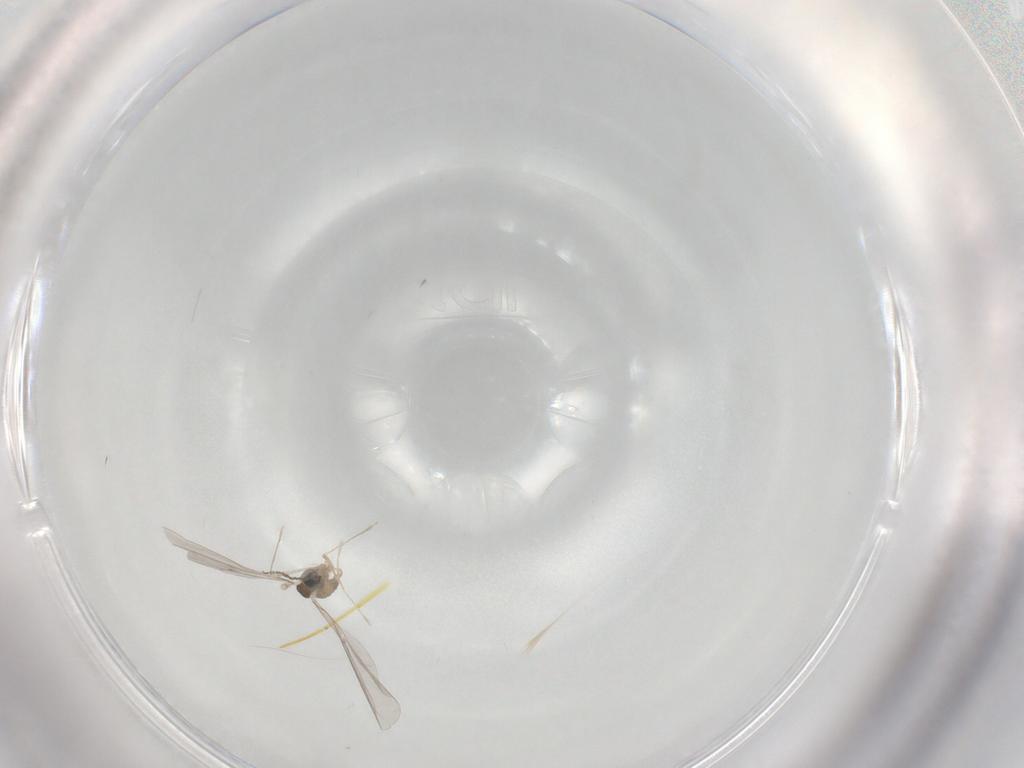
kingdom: Animalia
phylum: Arthropoda
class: Insecta
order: Diptera
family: Cecidomyiidae
